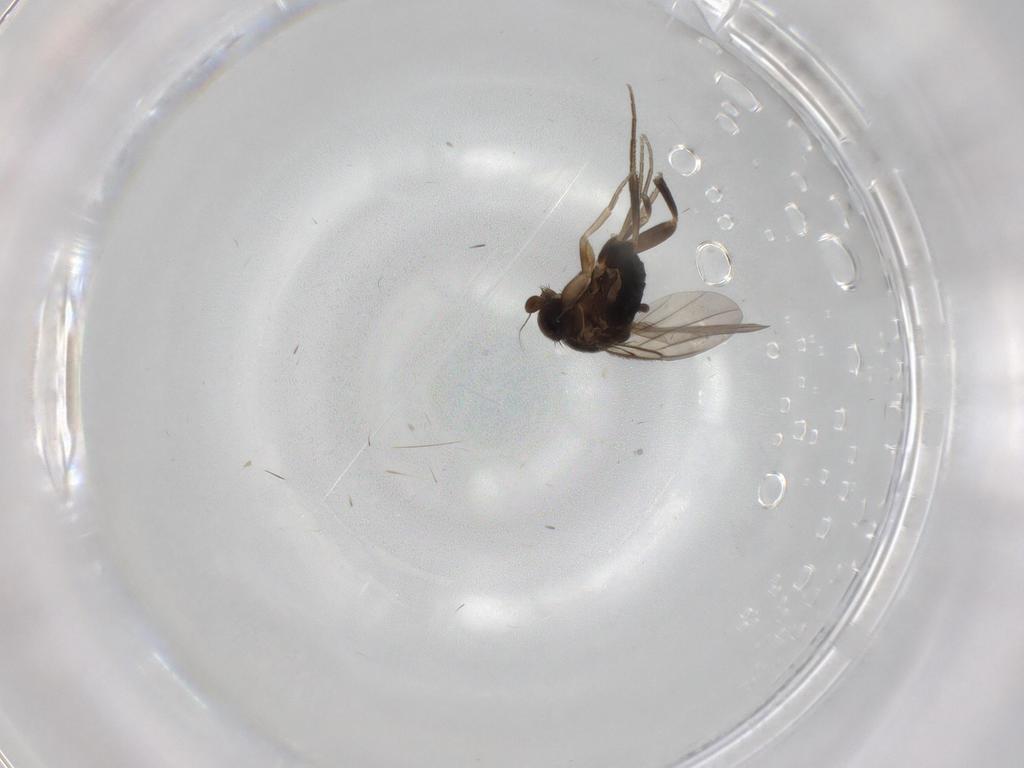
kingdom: Animalia
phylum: Arthropoda
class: Insecta
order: Diptera
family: Phoridae
